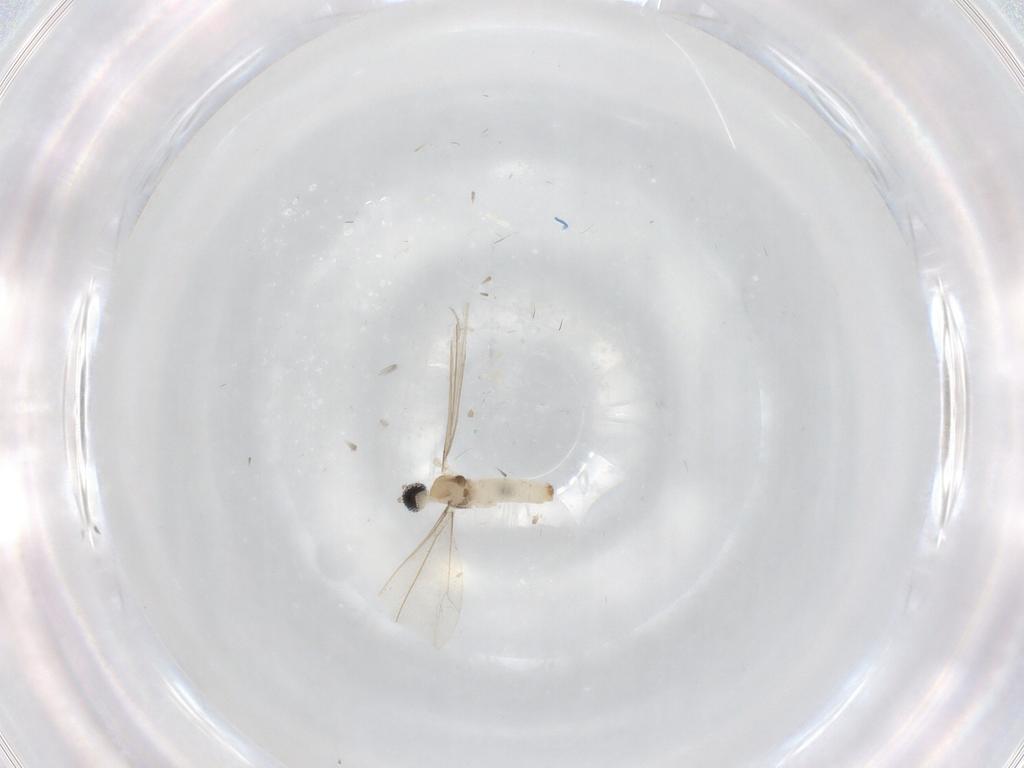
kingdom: Animalia
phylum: Arthropoda
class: Insecta
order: Diptera
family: Cecidomyiidae
